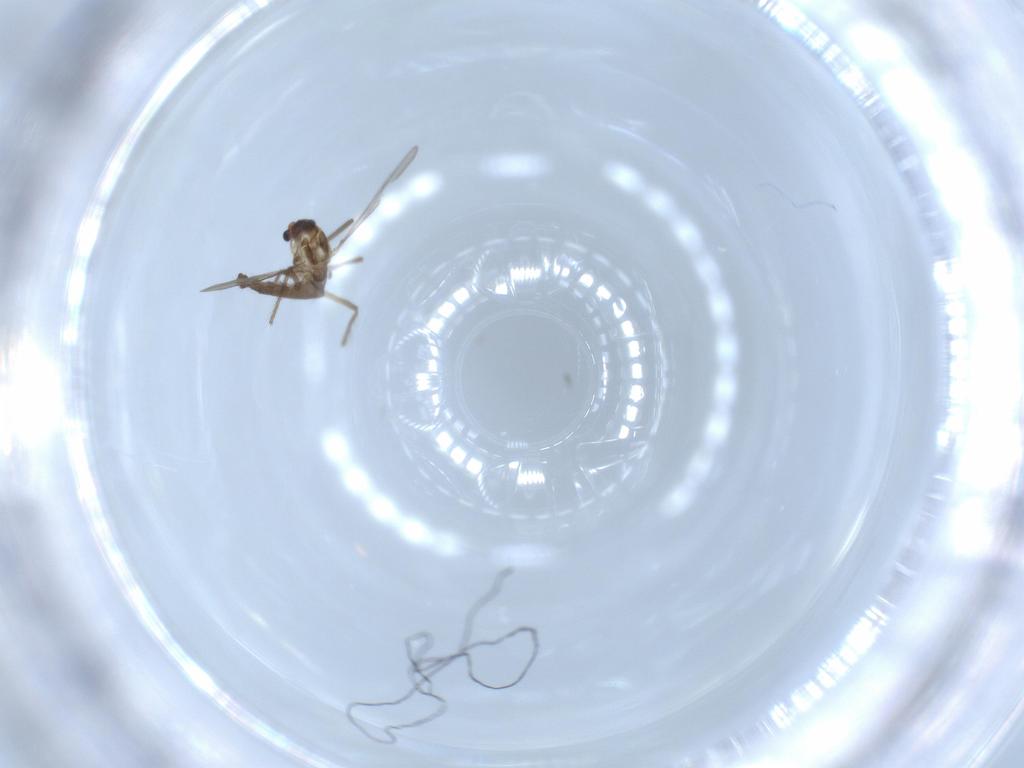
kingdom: Animalia
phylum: Arthropoda
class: Insecta
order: Diptera
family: Chironomidae
